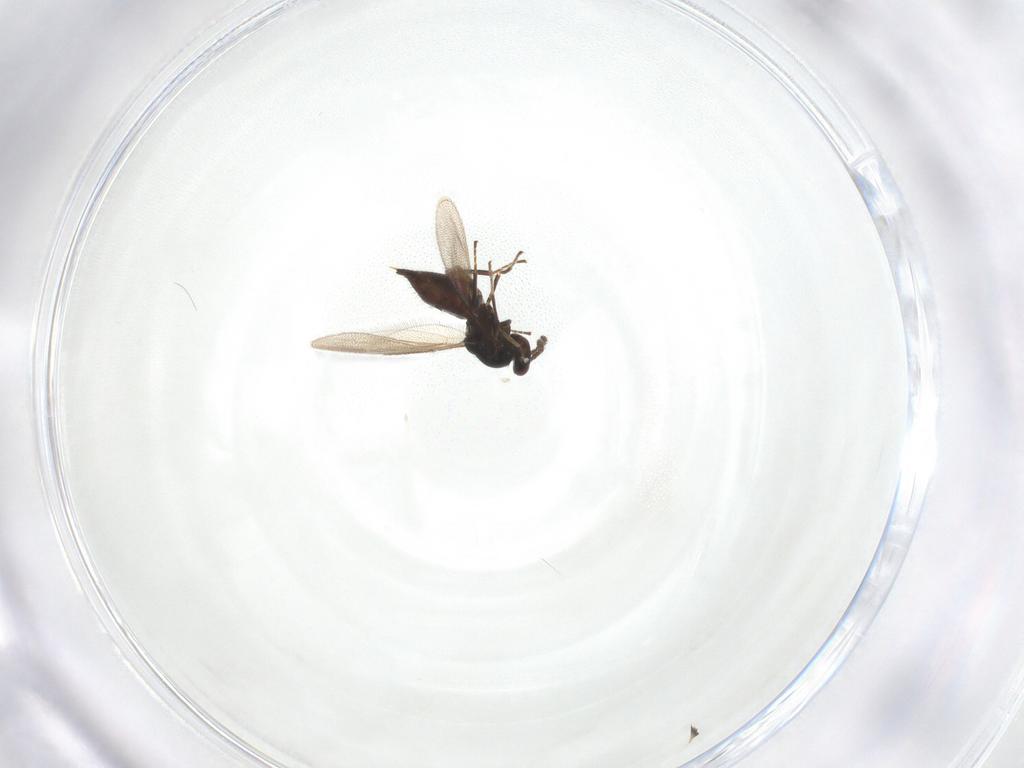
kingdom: Animalia
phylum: Arthropoda
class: Insecta
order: Hymenoptera
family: Eulophidae
